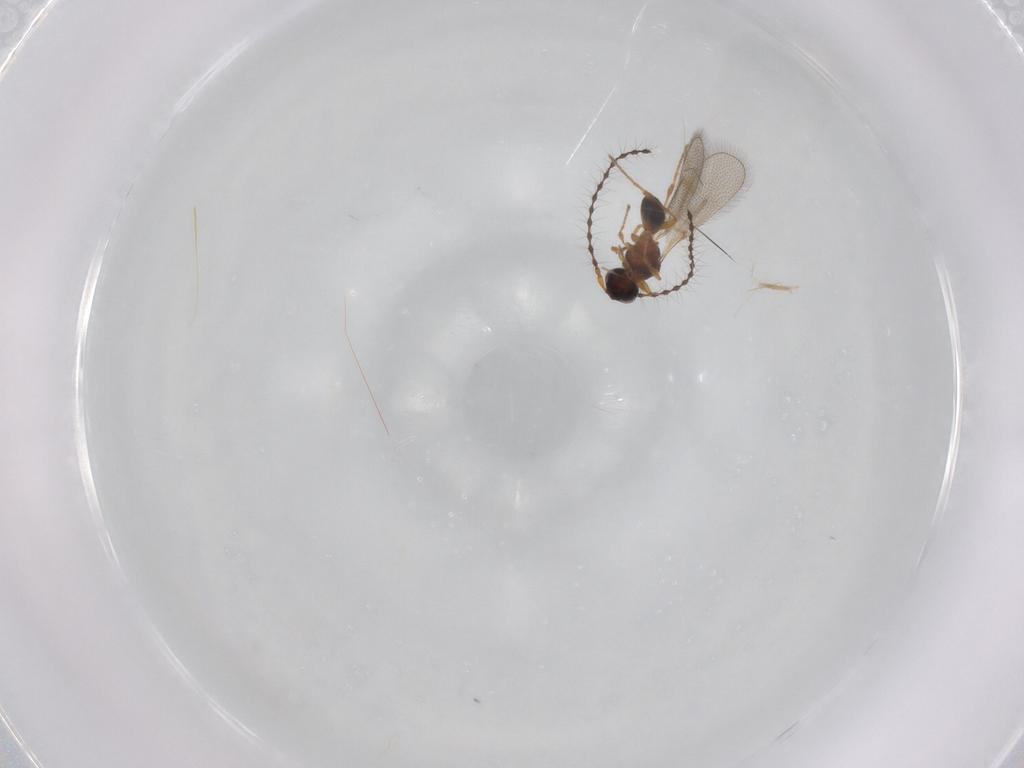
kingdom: Animalia
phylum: Arthropoda
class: Insecta
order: Hymenoptera
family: Diapriidae
